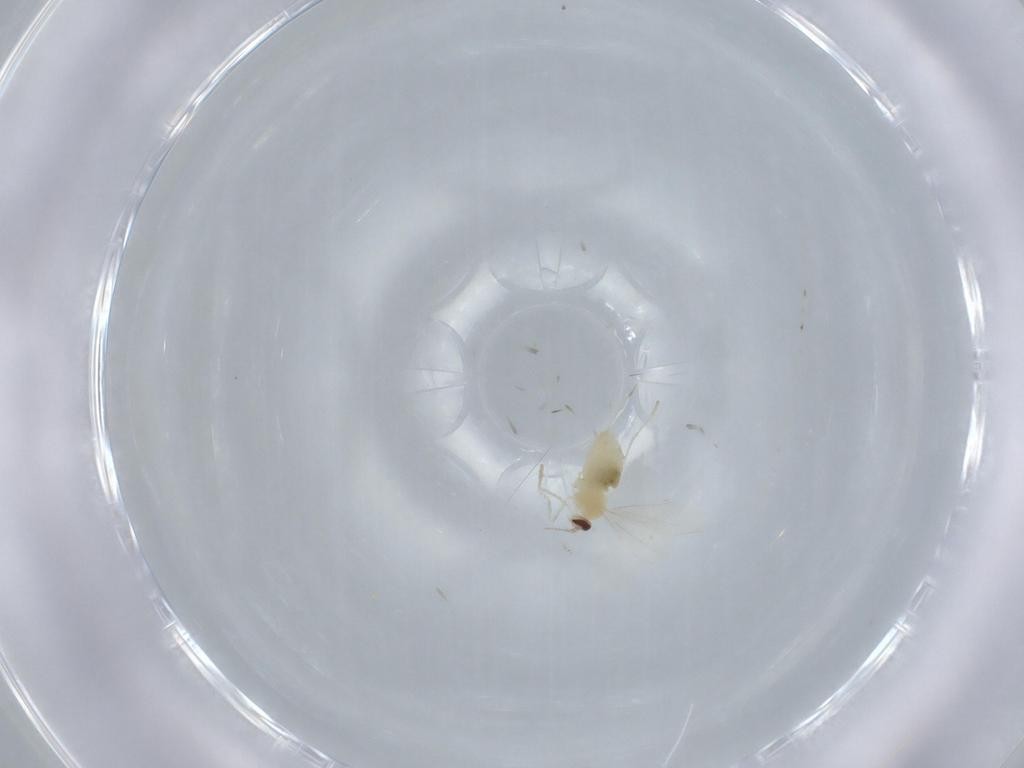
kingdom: Animalia
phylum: Arthropoda
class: Insecta
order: Diptera
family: Cecidomyiidae
